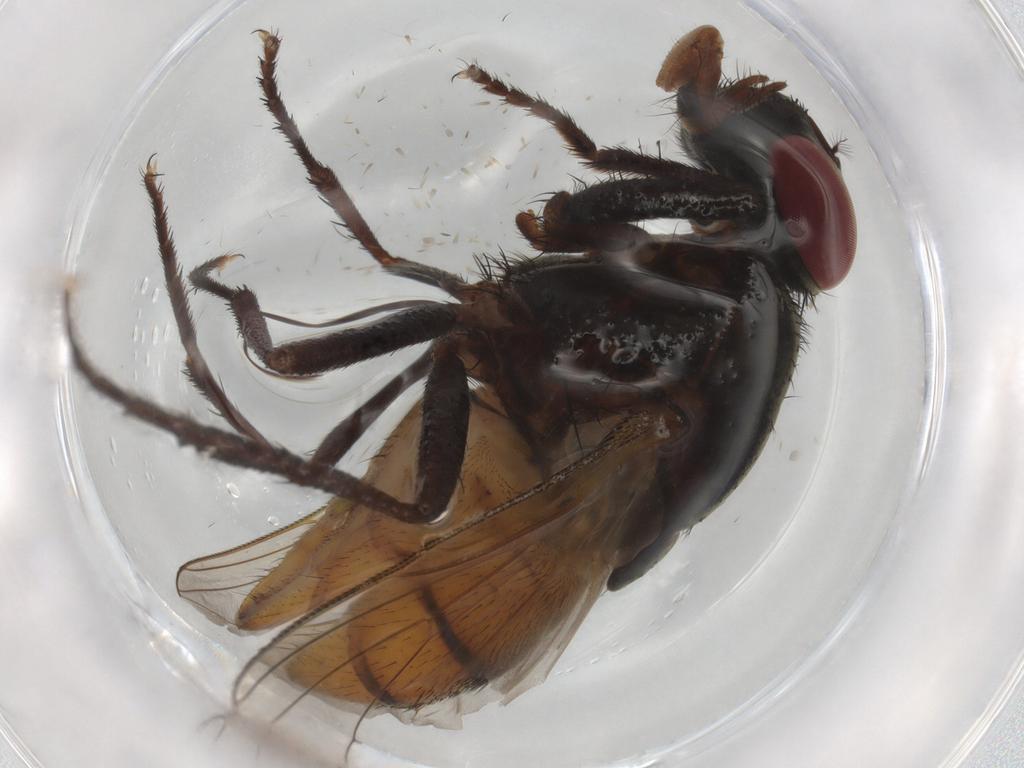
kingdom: Animalia
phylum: Arthropoda
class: Insecta
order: Diptera
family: Muscidae
